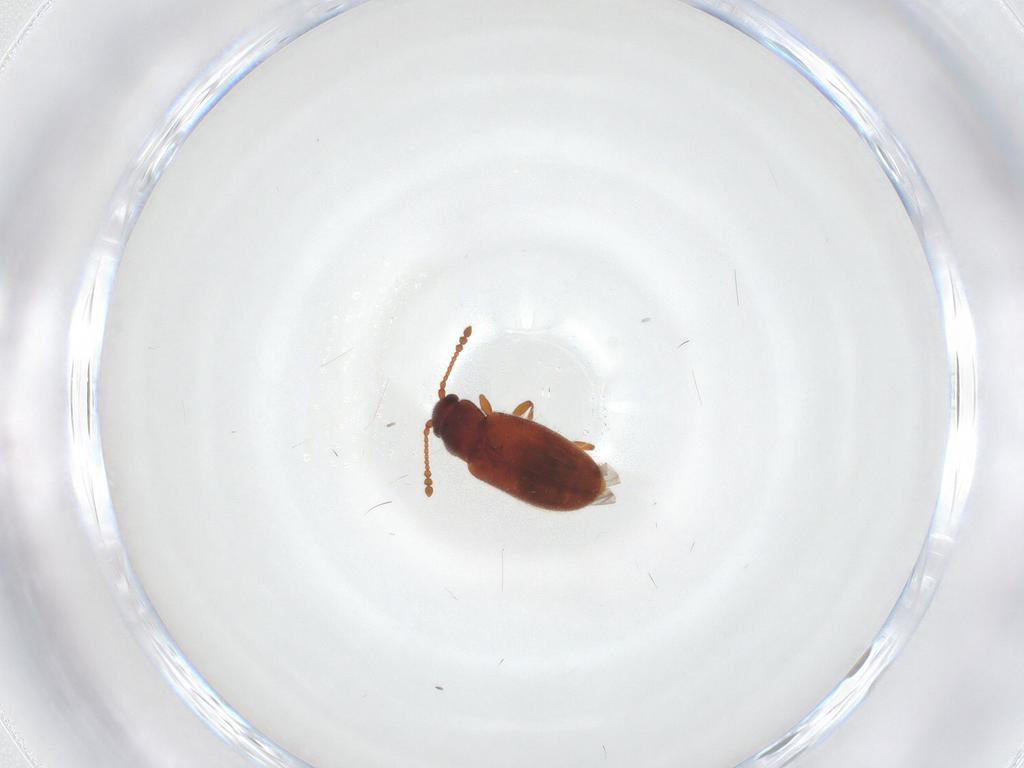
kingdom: Animalia
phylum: Arthropoda
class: Insecta
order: Coleoptera
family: Cryptophagidae
